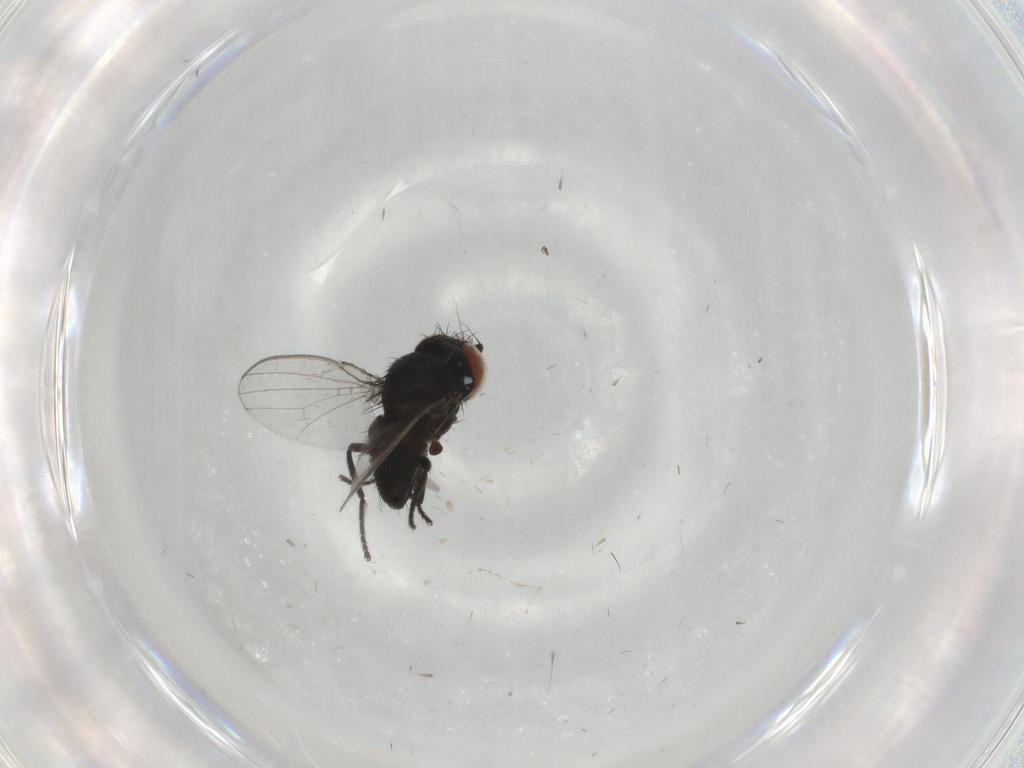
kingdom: Animalia
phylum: Arthropoda
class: Insecta
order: Diptera
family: Milichiidae
